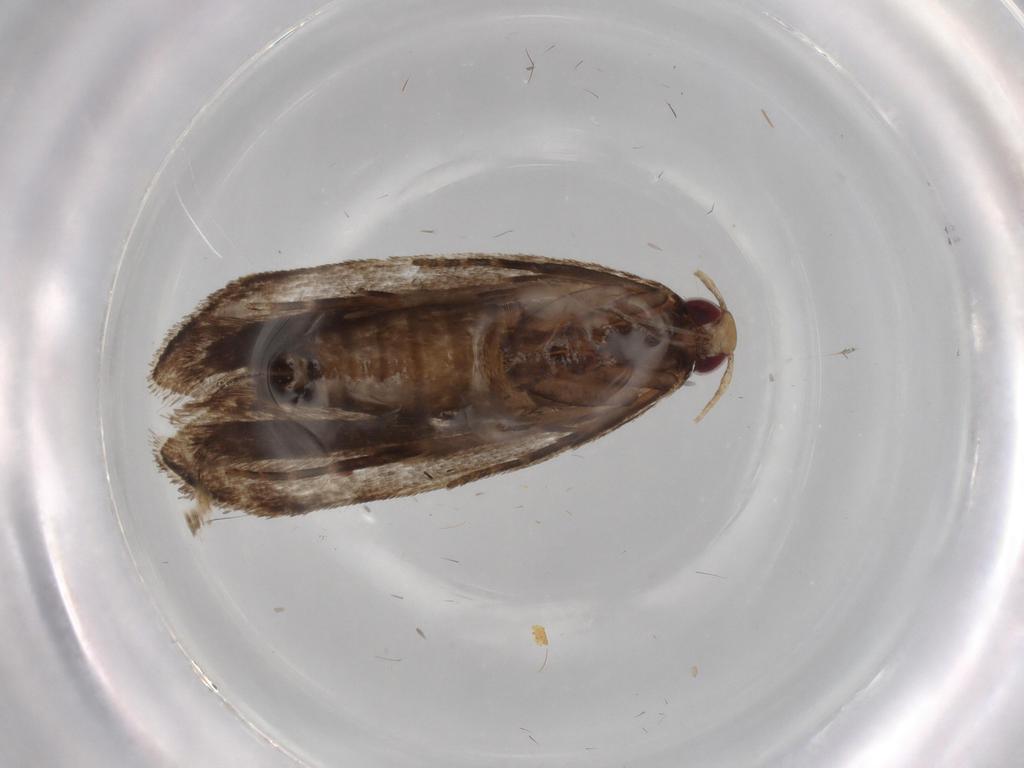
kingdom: Animalia
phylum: Arthropoda
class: Insecta
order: Lepidoptera
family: Gelechiidae
